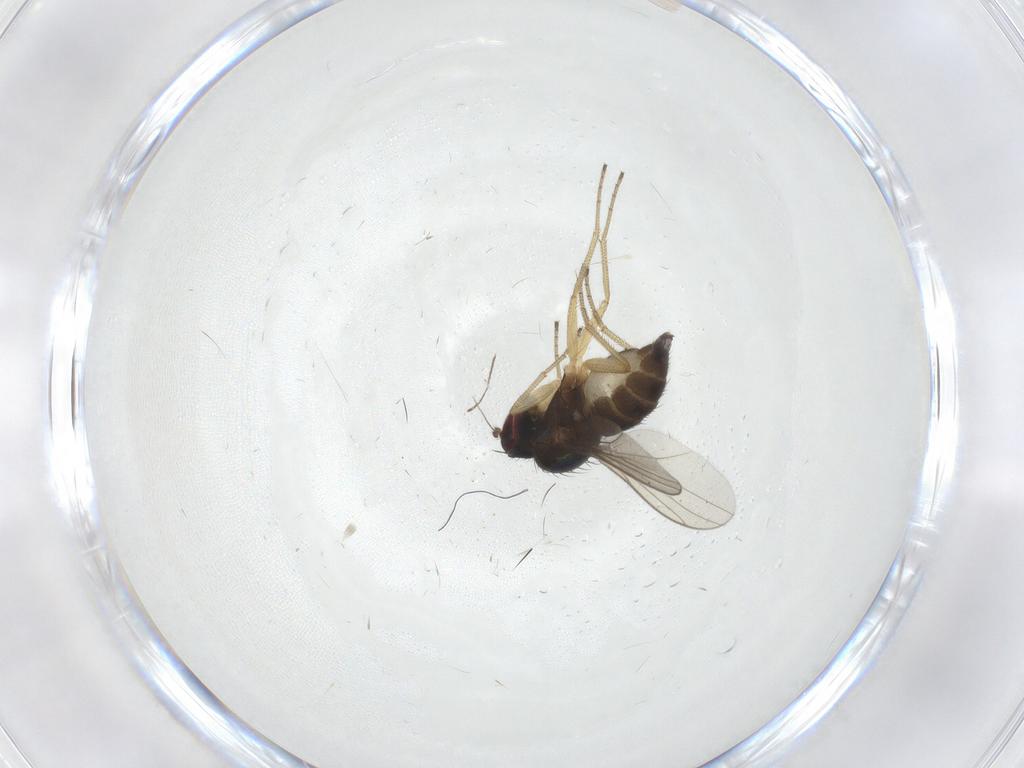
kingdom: Animalia
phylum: Arthropoda
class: Insecta
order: Diptera
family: Dolichopodidae
